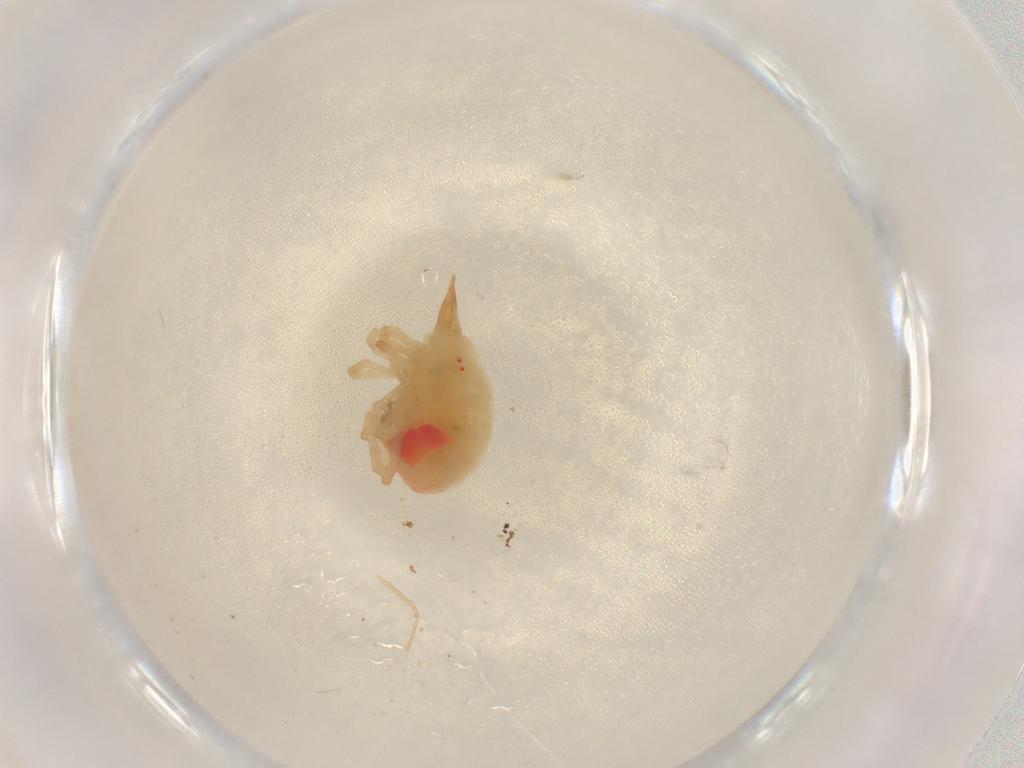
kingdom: Animalia
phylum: Arthropoda
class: Arachnida
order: Trombidiformes
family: Bdellidae
